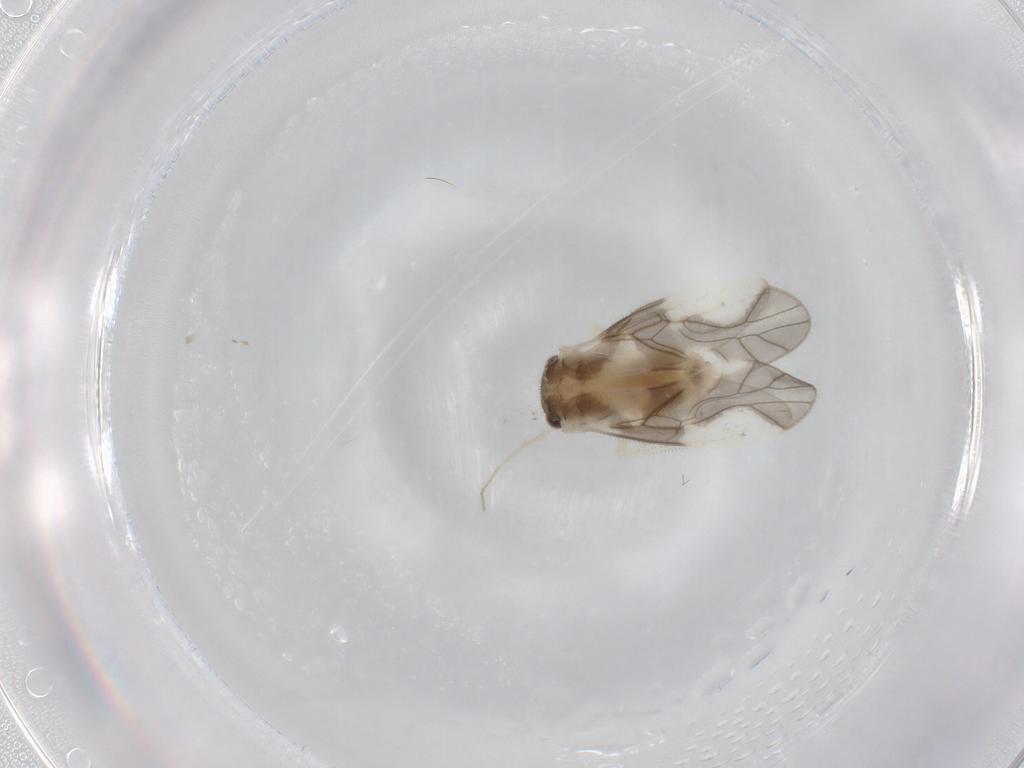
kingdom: Animalia
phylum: Arthropoda
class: Insecta
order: Psocodea
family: Caeciliusidae
